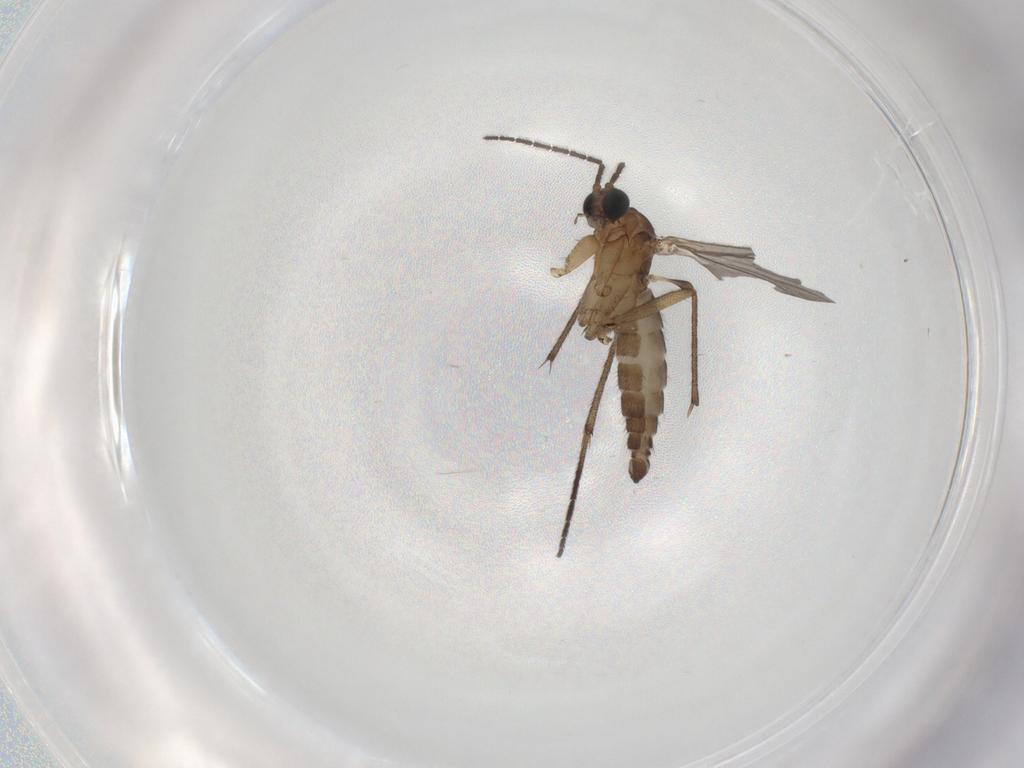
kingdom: Animalia
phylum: Arthropoda
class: Insecta
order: Diptera
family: Sciaridae
